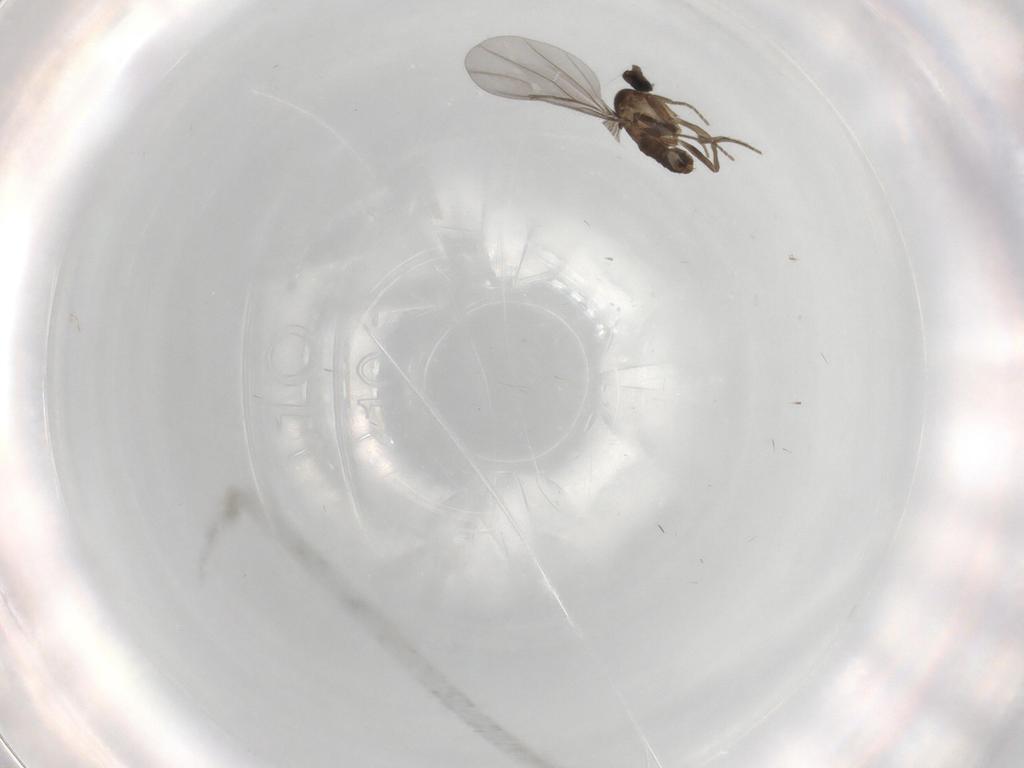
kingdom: Animalia
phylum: Arthropoda
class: Insecta
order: Diptera
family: Phoridae
